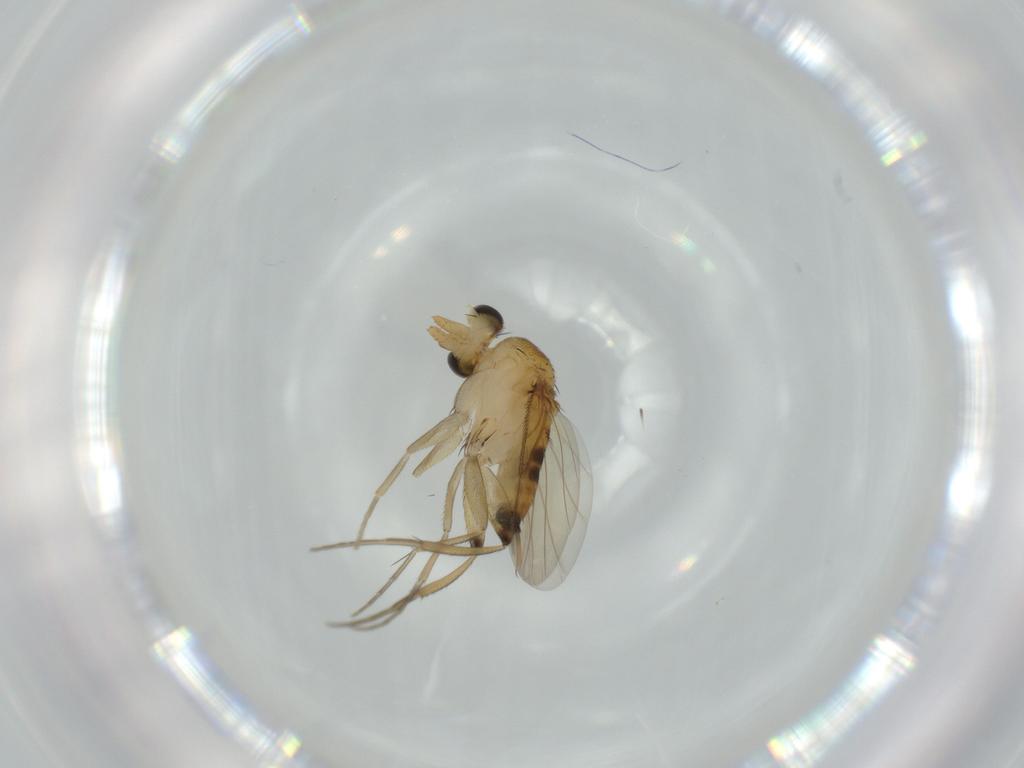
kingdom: Animalia
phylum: Arthropoda
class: Insecta
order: Diptera
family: Phoridae
